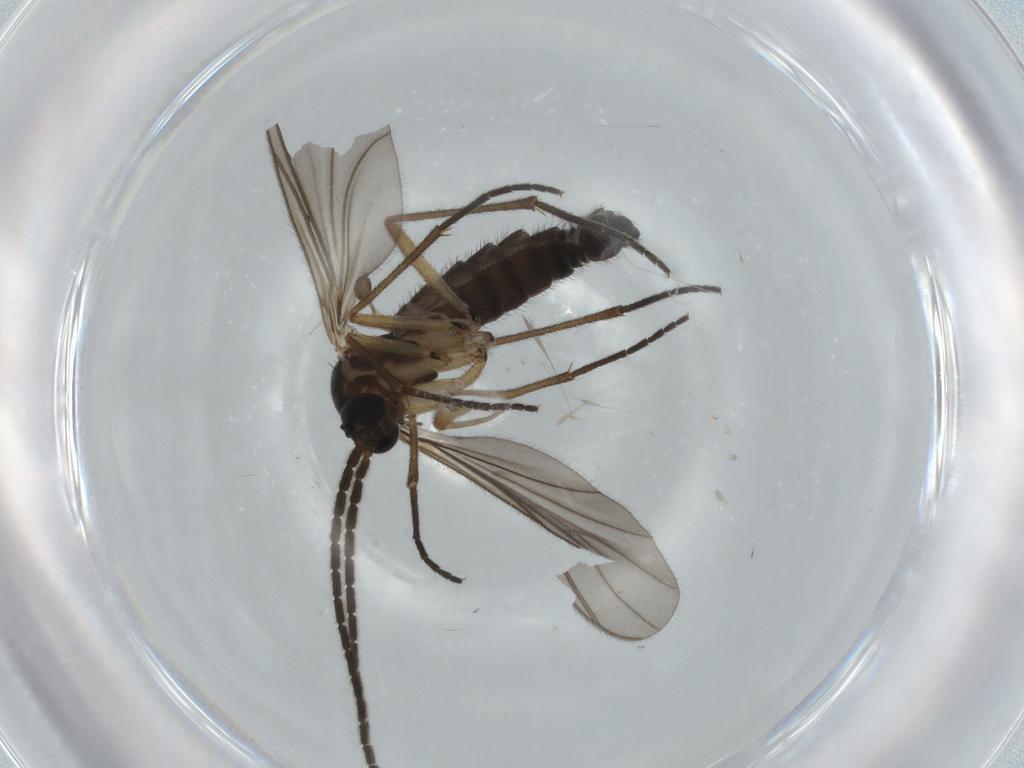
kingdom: Animalia
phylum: Arthropoda
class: Insecta
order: Diptera
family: Sciaridae
